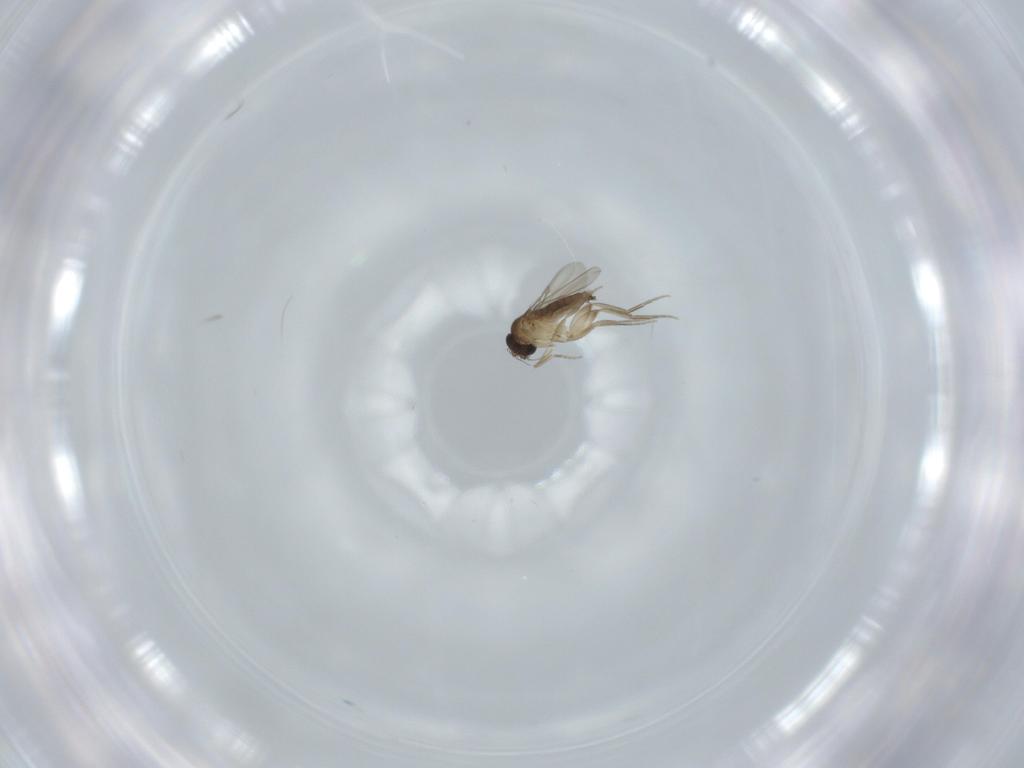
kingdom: Animalia
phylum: Arthropoda
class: Insecta
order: Diptera
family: Phoridae
